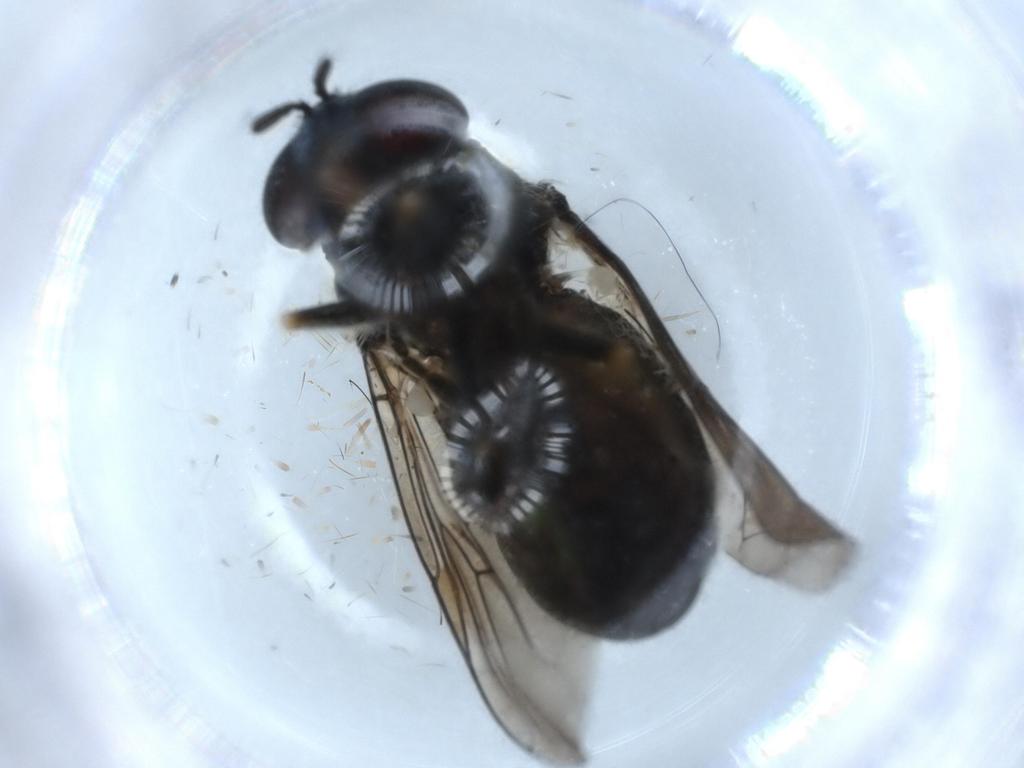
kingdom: Animalia
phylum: Arthropoda
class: Insecta
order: Diptera
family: Syrphidae
